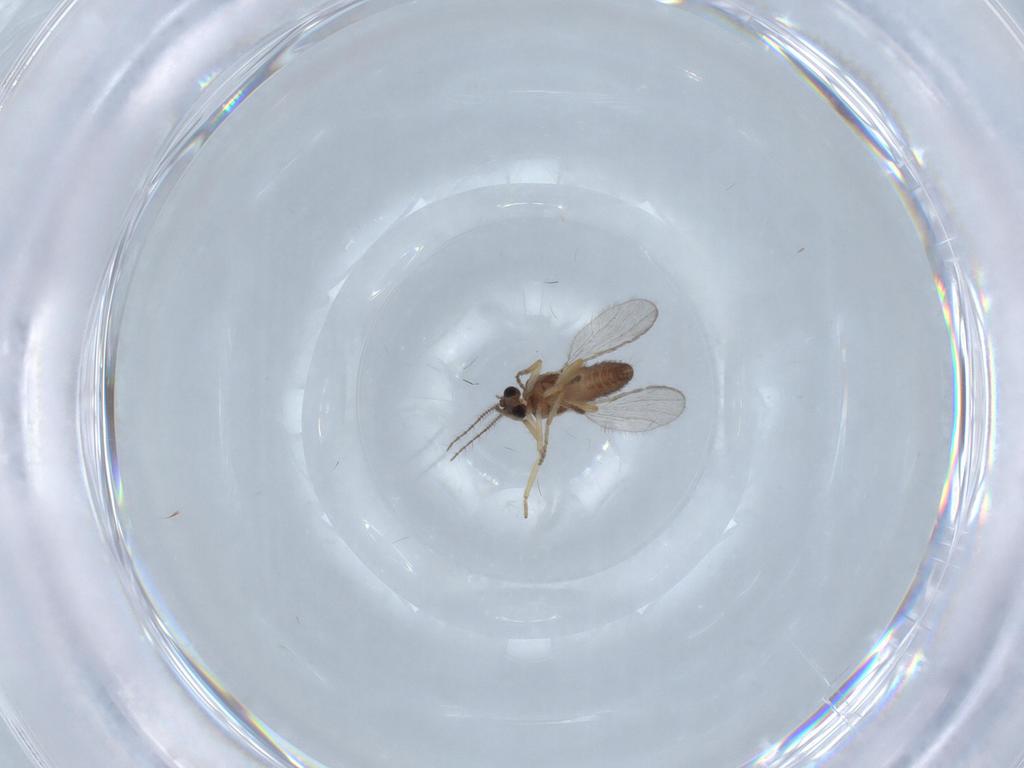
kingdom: Animalia
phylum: Arthropoda
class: Insecta
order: Diptera
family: Ceratopogonidae
